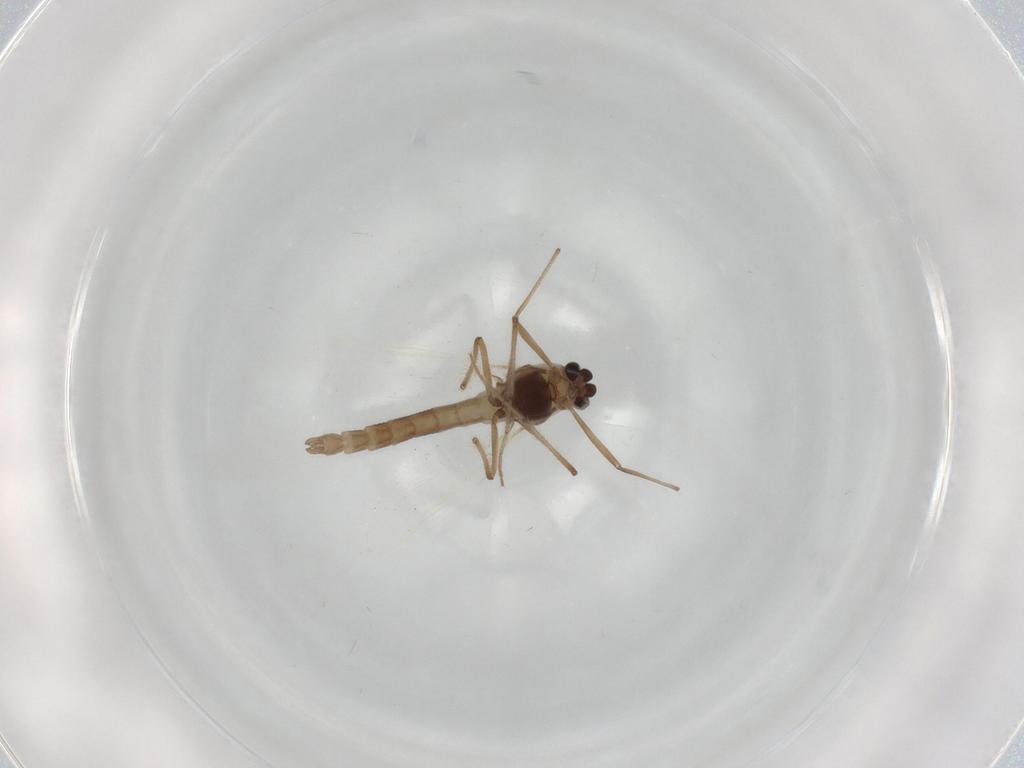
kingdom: Animalia
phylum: Arthropoda
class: Insecta
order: Diptera
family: Chironomidae
